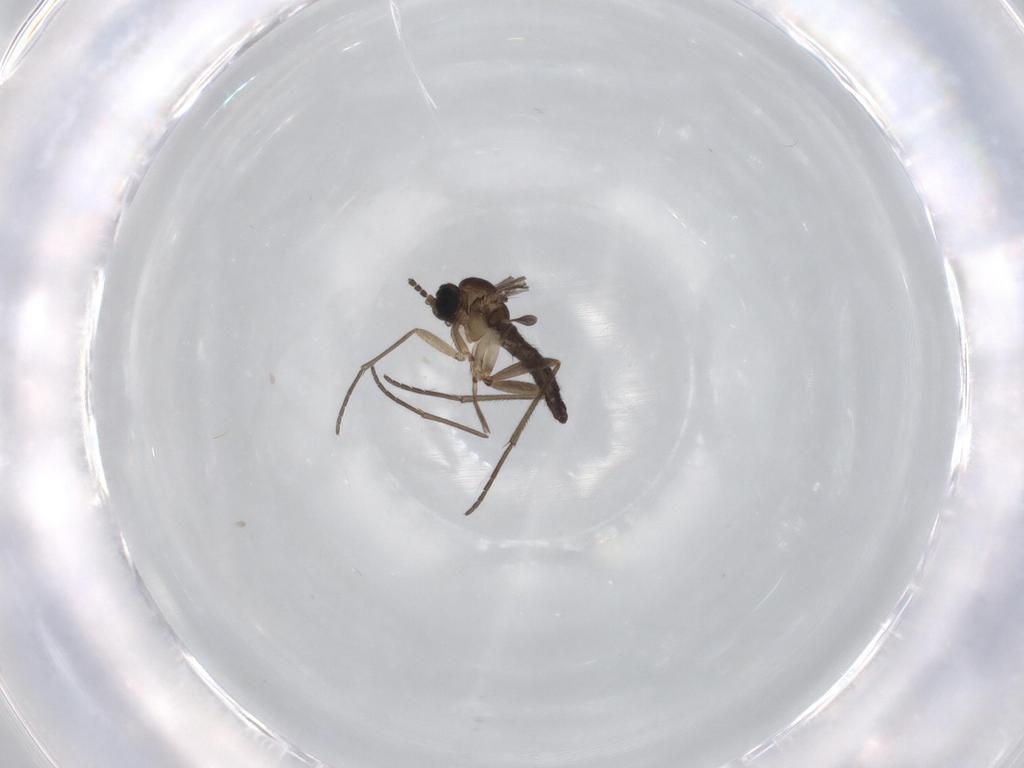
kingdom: Animalia
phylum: Arthropoda
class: Insecta
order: Diptera
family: Sciaridae
